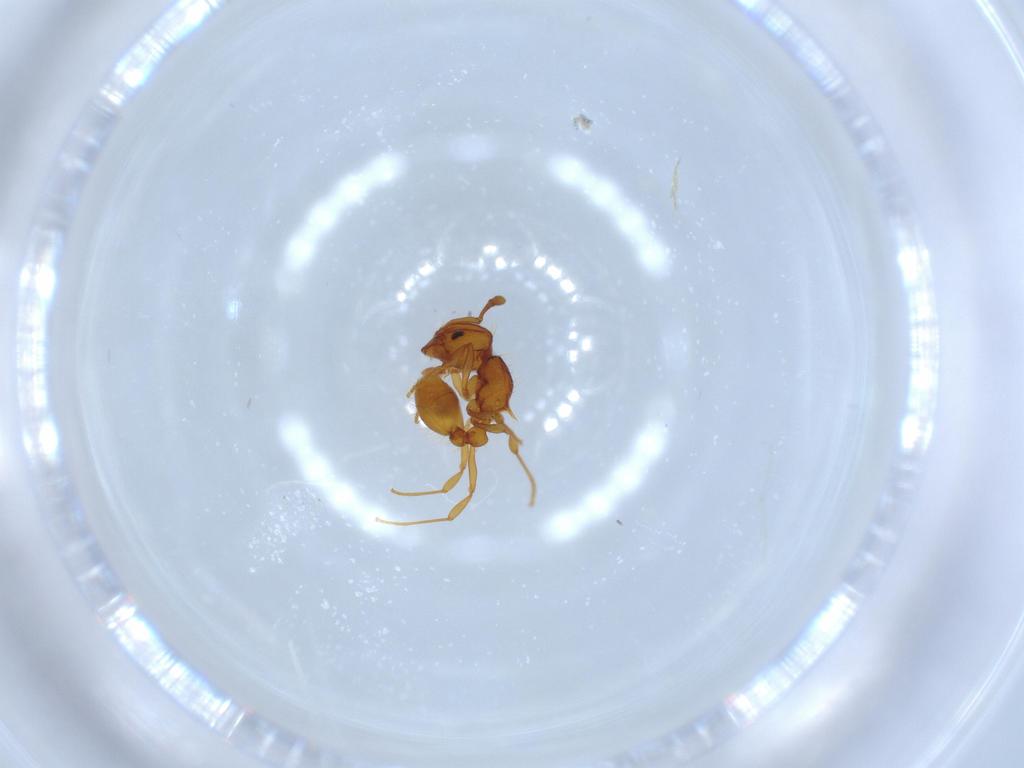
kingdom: Animalia
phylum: Arthropoda
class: Insecta
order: Hymenoptera
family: Formicidae
